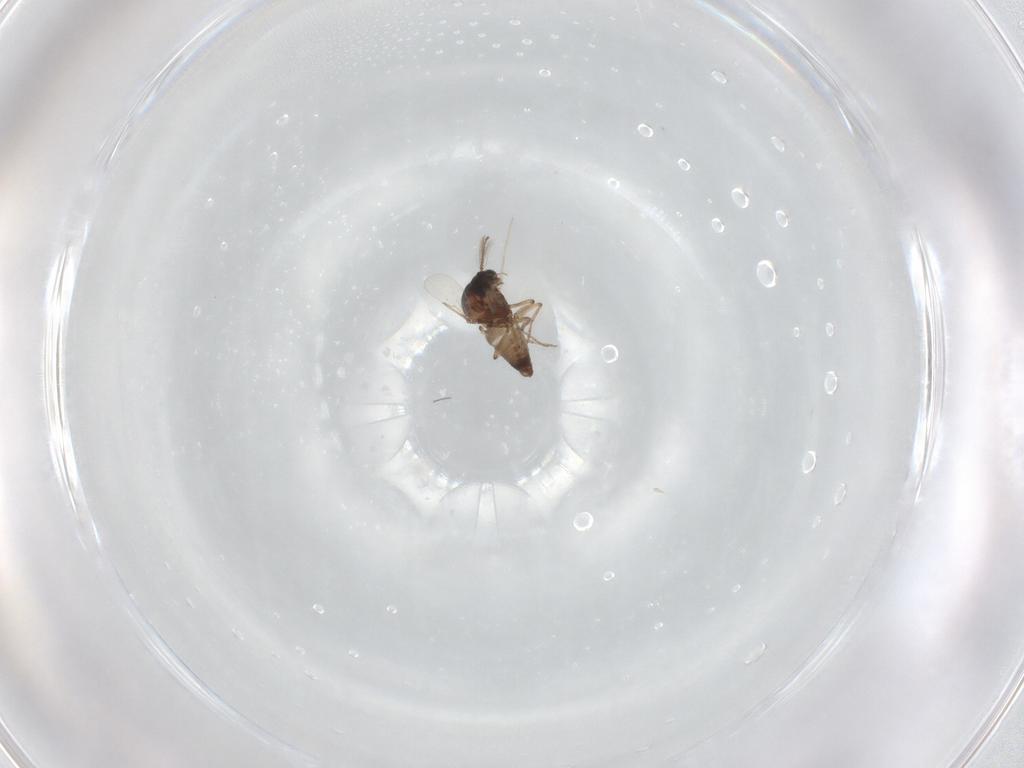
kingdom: Animalia
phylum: Arthropoda
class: Insecta
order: Diptera
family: Ceratopogonidae
